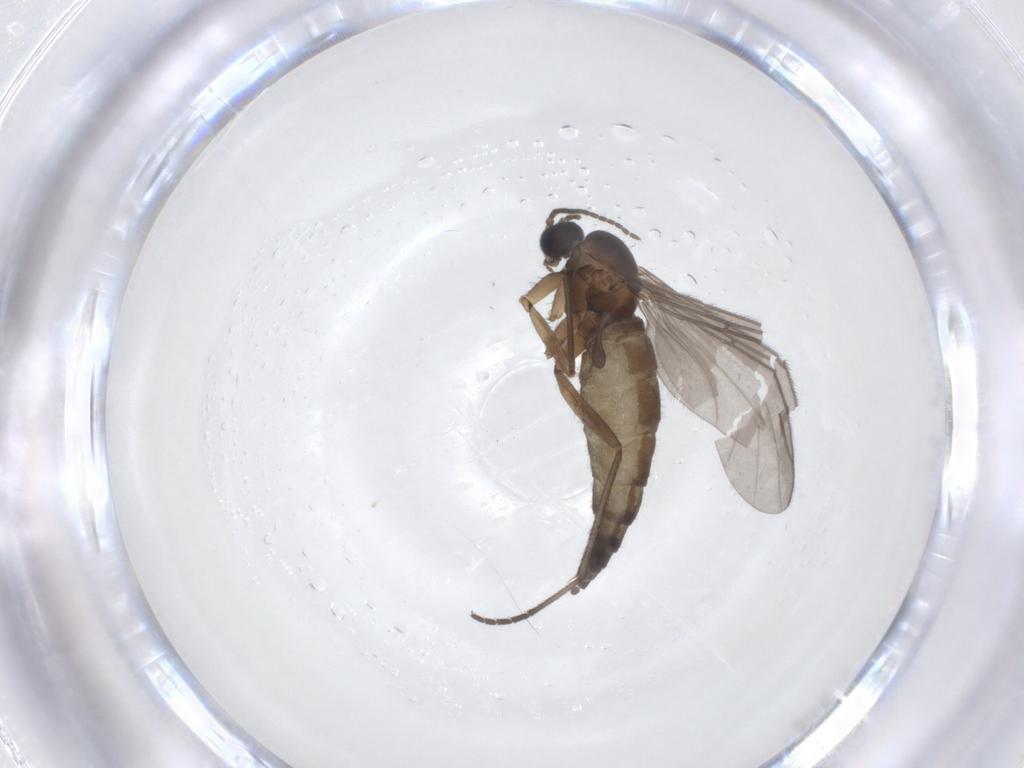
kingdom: Animalia
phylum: Arthropoda
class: Insecta
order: Diptera
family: Sciaridae
